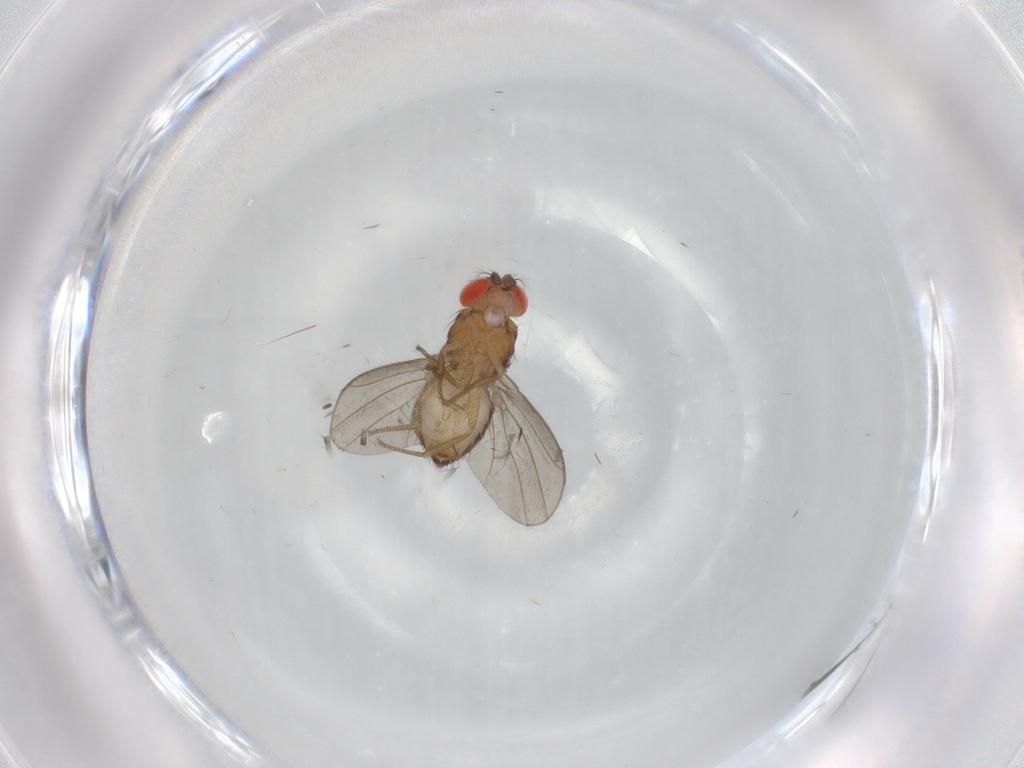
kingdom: Animalia
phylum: Arthropoda
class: Insecta
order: Diptera
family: Drosophilidae
